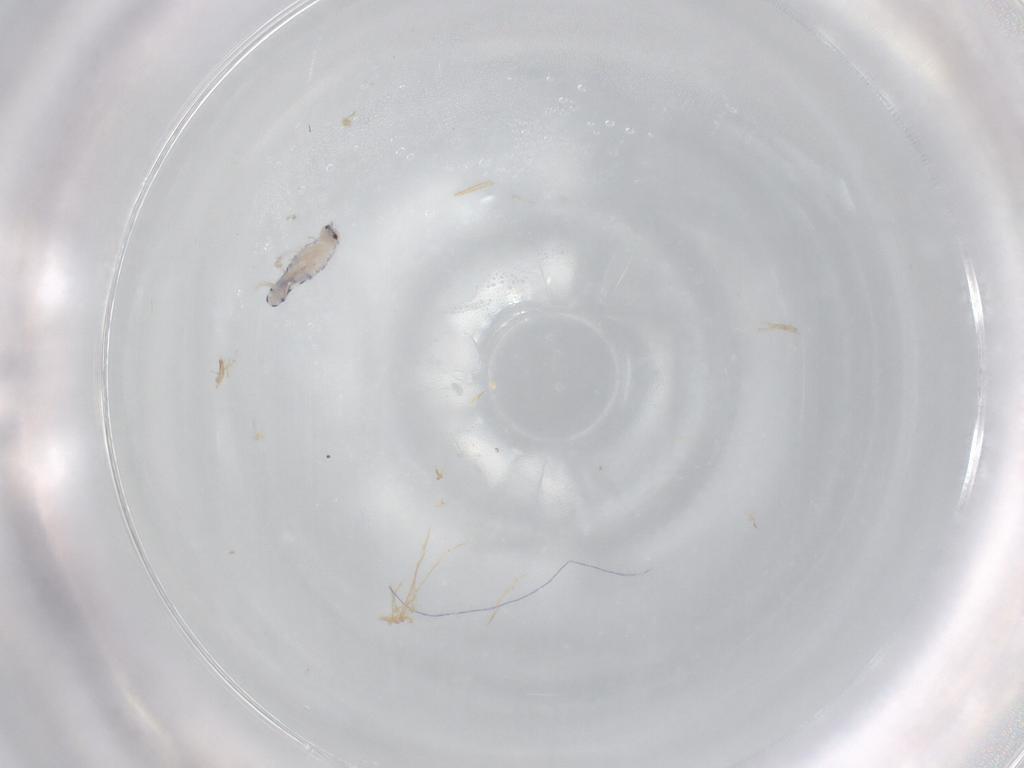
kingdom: Animalia
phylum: Arthropoda
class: Collembola
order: Entomobryomorpha
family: Entomobryidae
